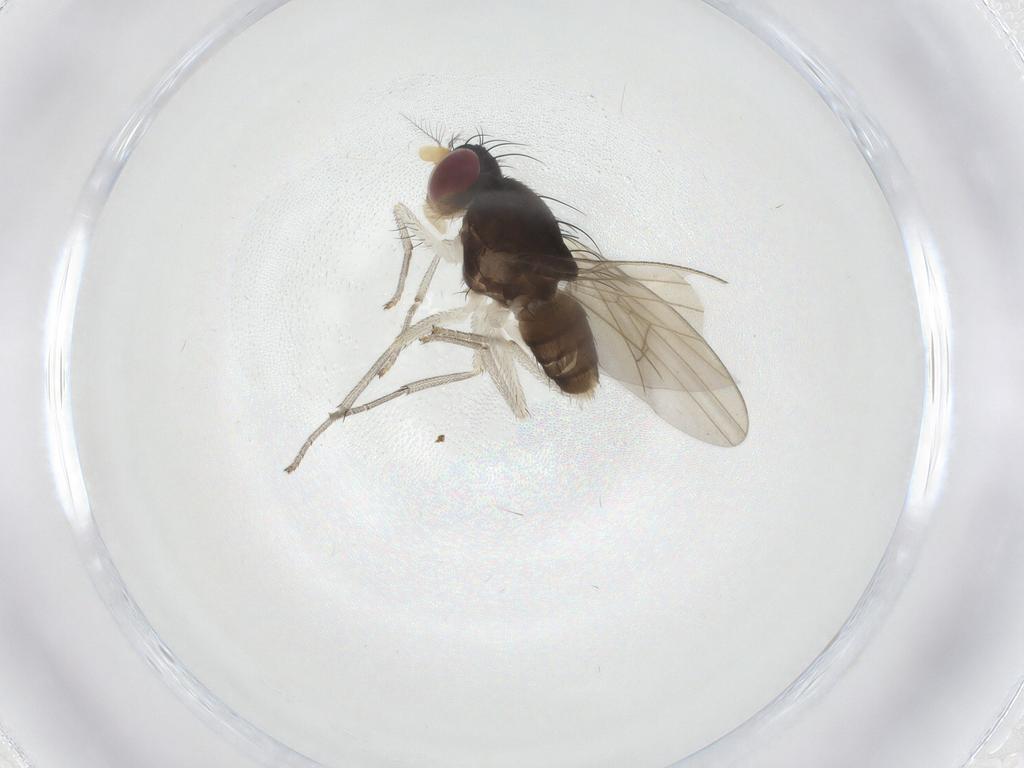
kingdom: Animalia
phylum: Arthropoda
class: Insecta
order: Diptera
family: Lauxaniidae
